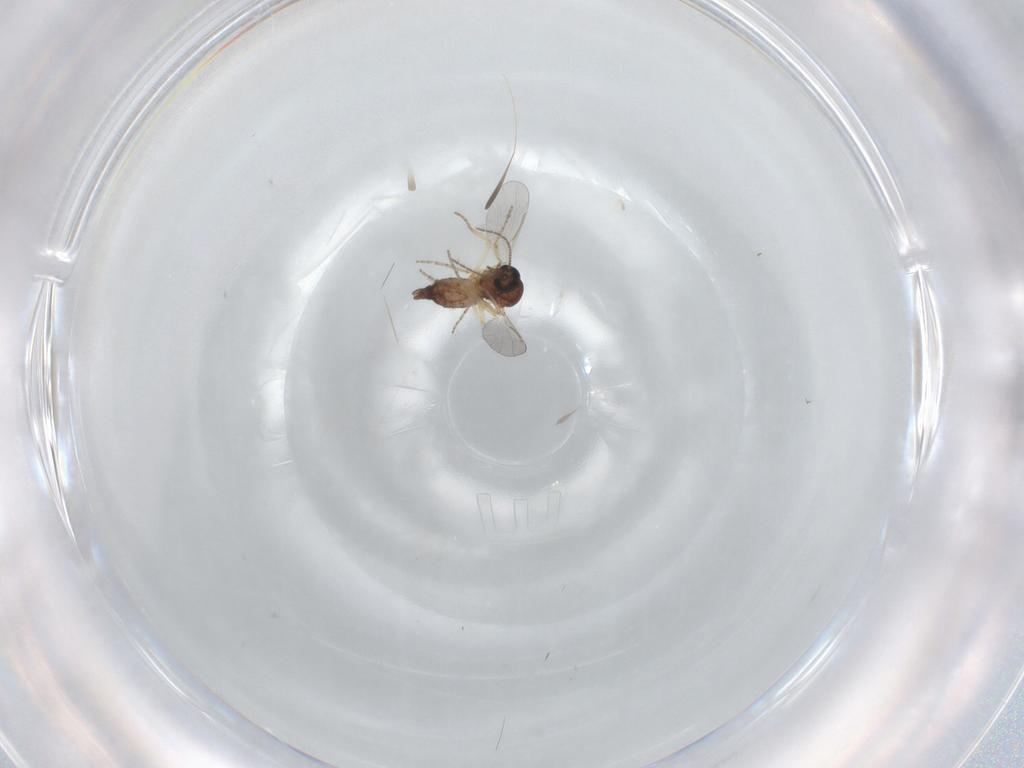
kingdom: Animalia
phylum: Arthropoda
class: Insecta
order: Diptera
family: Ceratopogonidae
